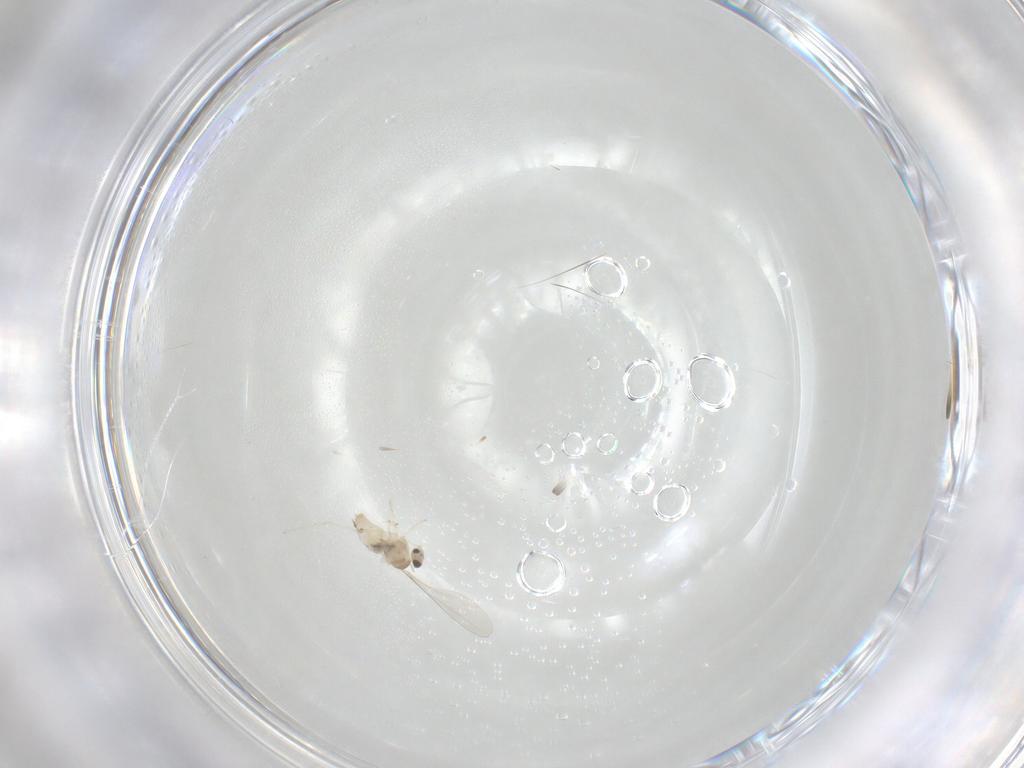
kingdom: Animalia
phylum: Arthropoda
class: Insecta
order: Diptera
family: Cecidomyiidae
